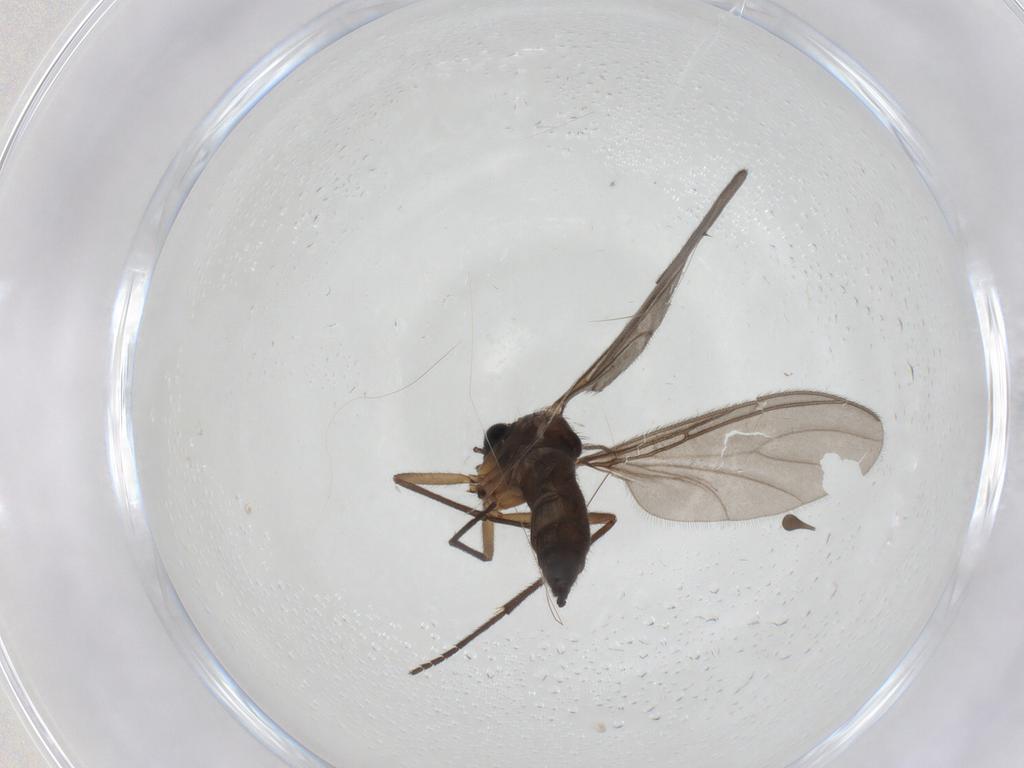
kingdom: Animalia
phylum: Arthropoda
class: Insecta
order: Diptera
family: Sciaridae
